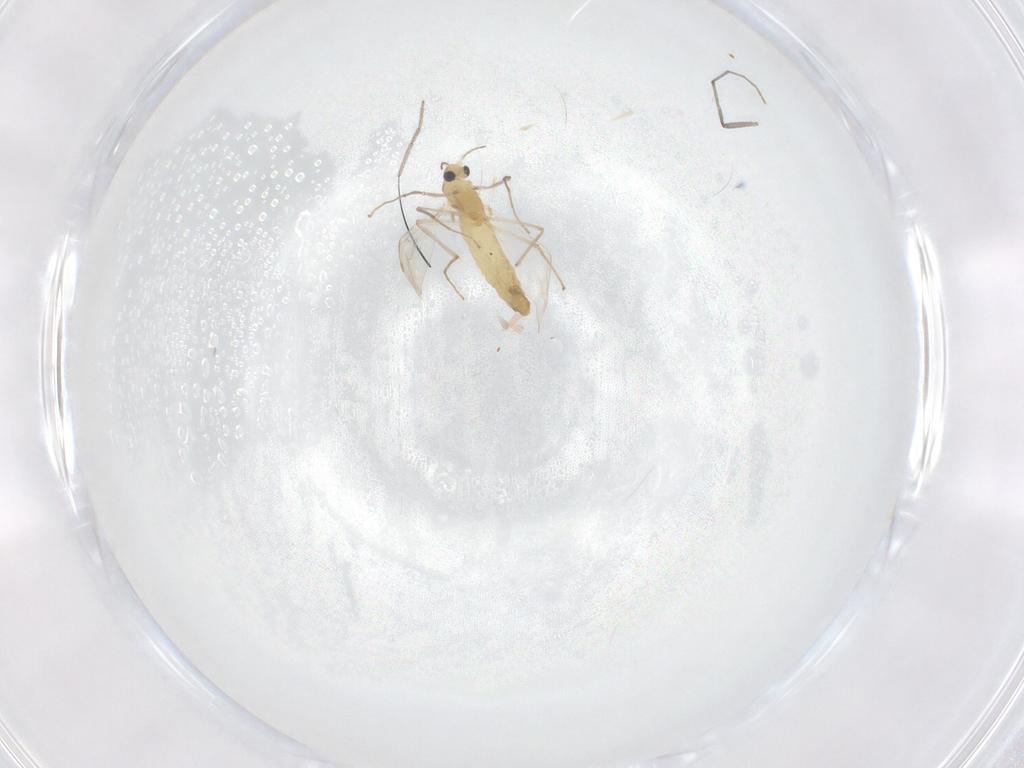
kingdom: Animalia
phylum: Arthropoda
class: Insecta
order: Diptera
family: Chironomidae
